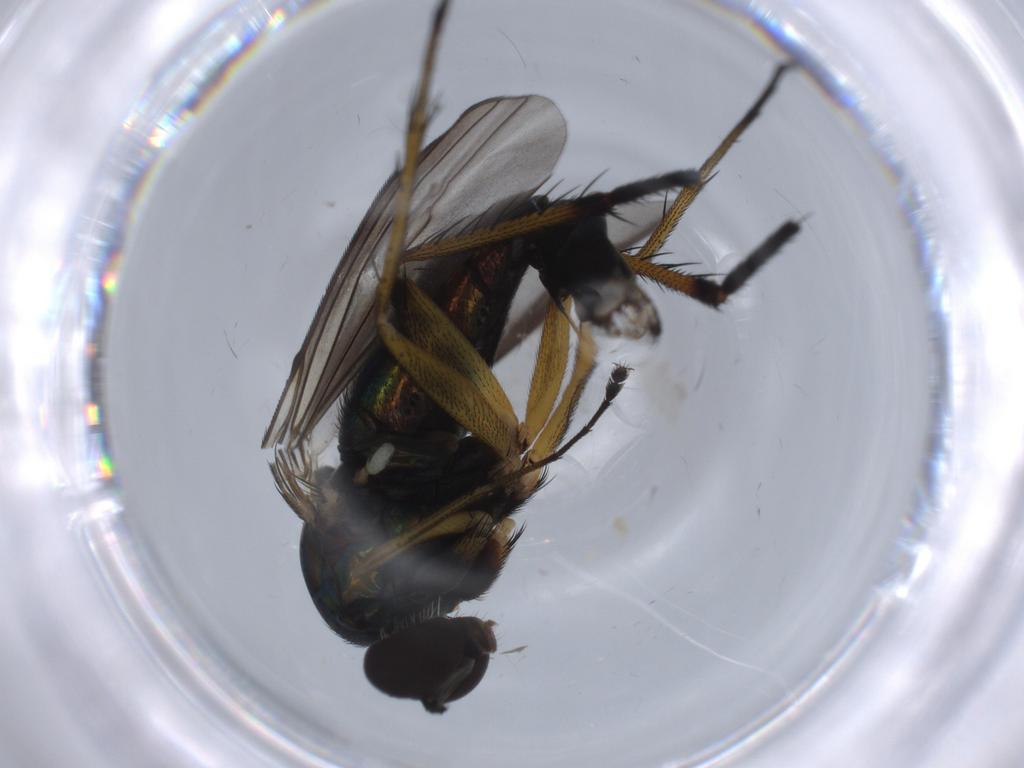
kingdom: Animalia
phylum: Arthropoda
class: Insecta
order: Diptera
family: Dolichopodidae
